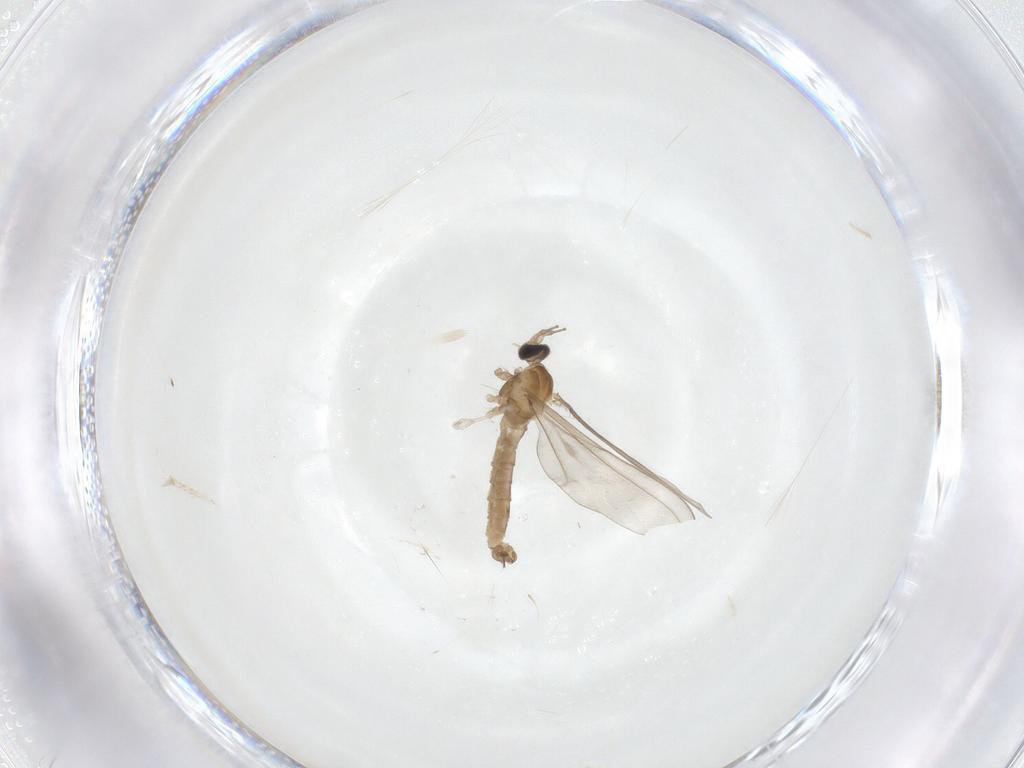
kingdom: Animalia
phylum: Arthropoda
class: Insecta
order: Diptera
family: Cecidomyiidae
